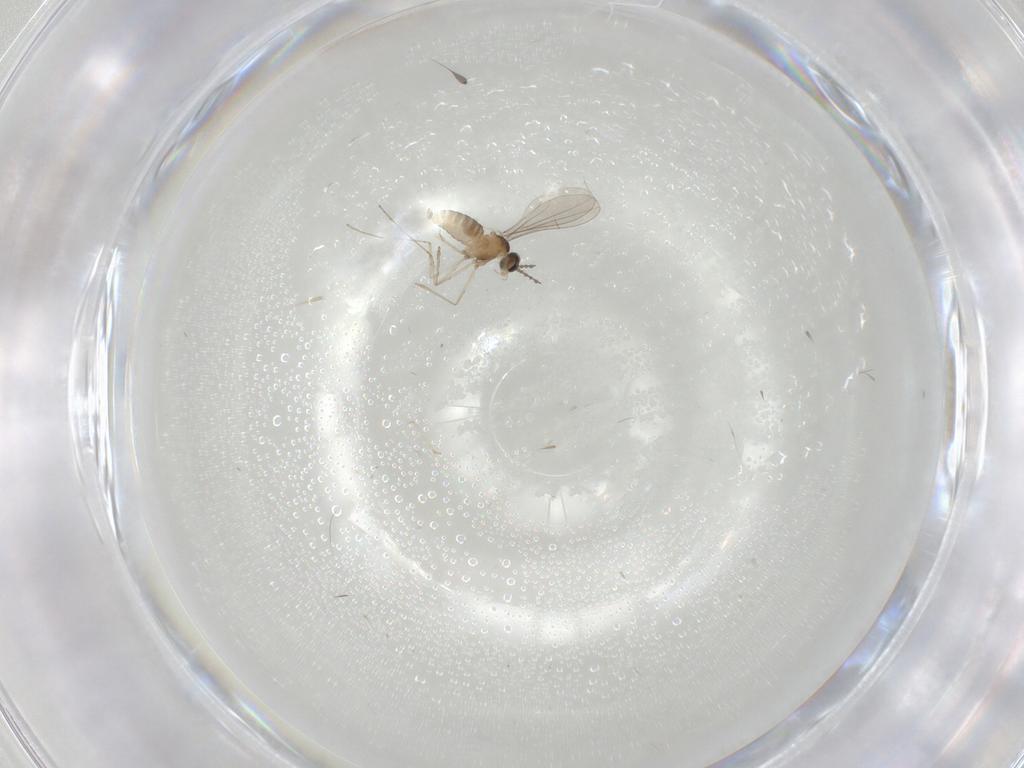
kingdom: Animalia
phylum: Arthropoda
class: Insecta
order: Diptera
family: Cecidomyiidae
